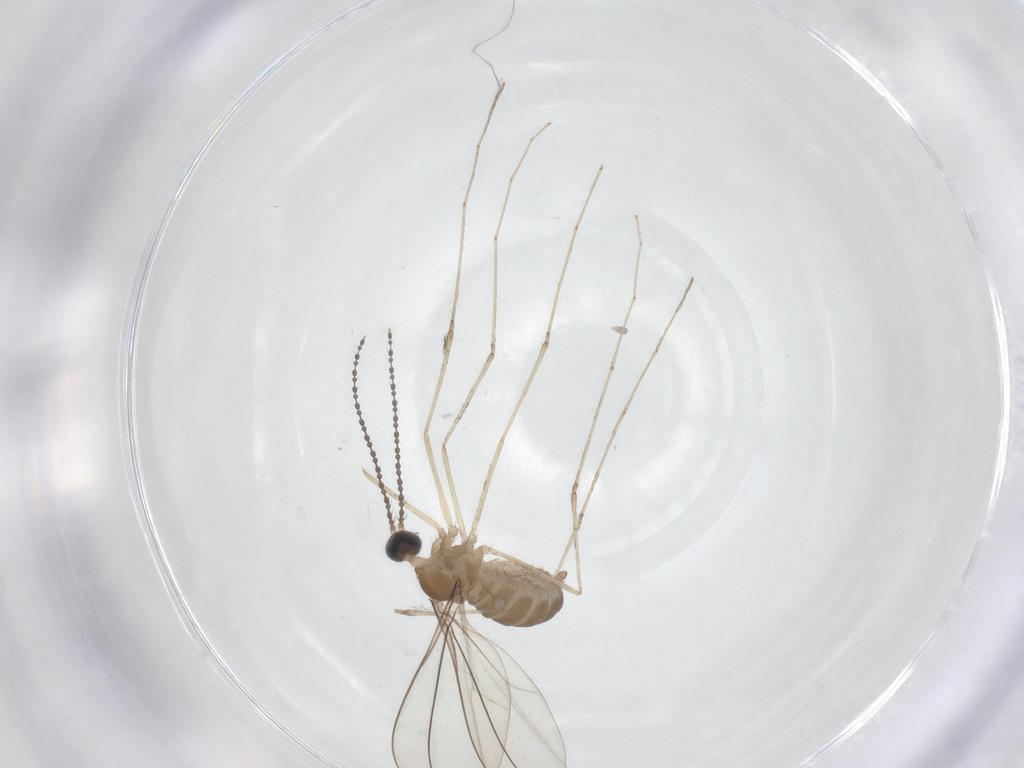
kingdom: Animalia
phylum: Arthropoda
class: Insecta
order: Diptera
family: Cecidomyiidae
